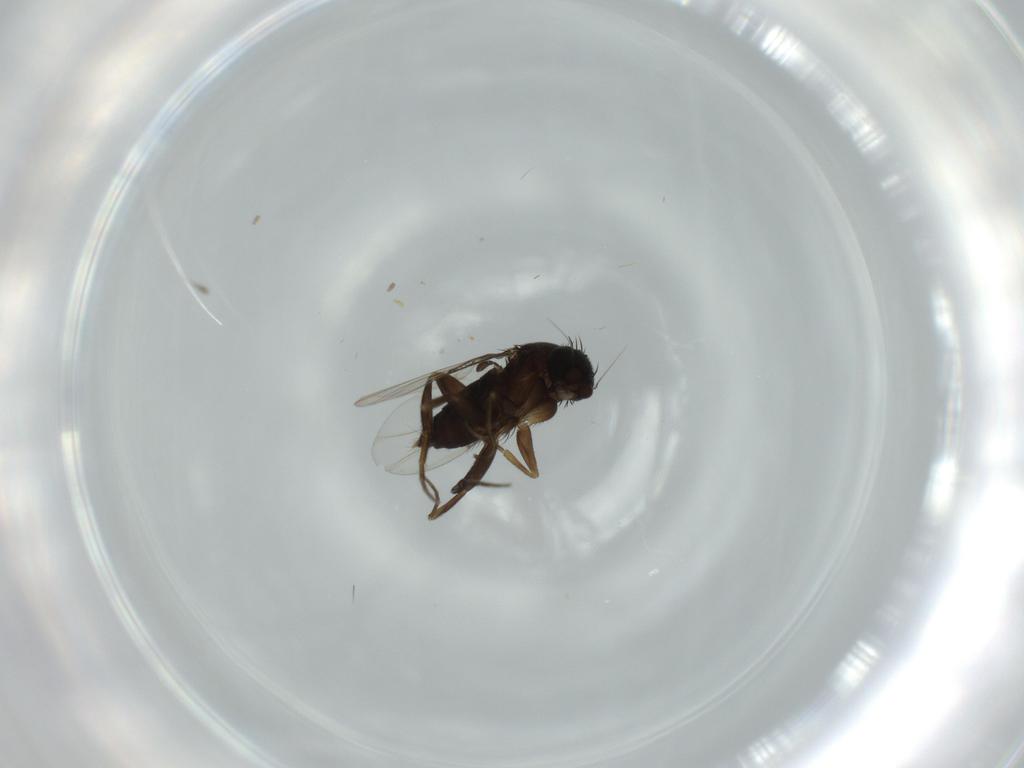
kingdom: Animalia
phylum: Arthropoda
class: Insecta
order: Diptera
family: Phoridae
